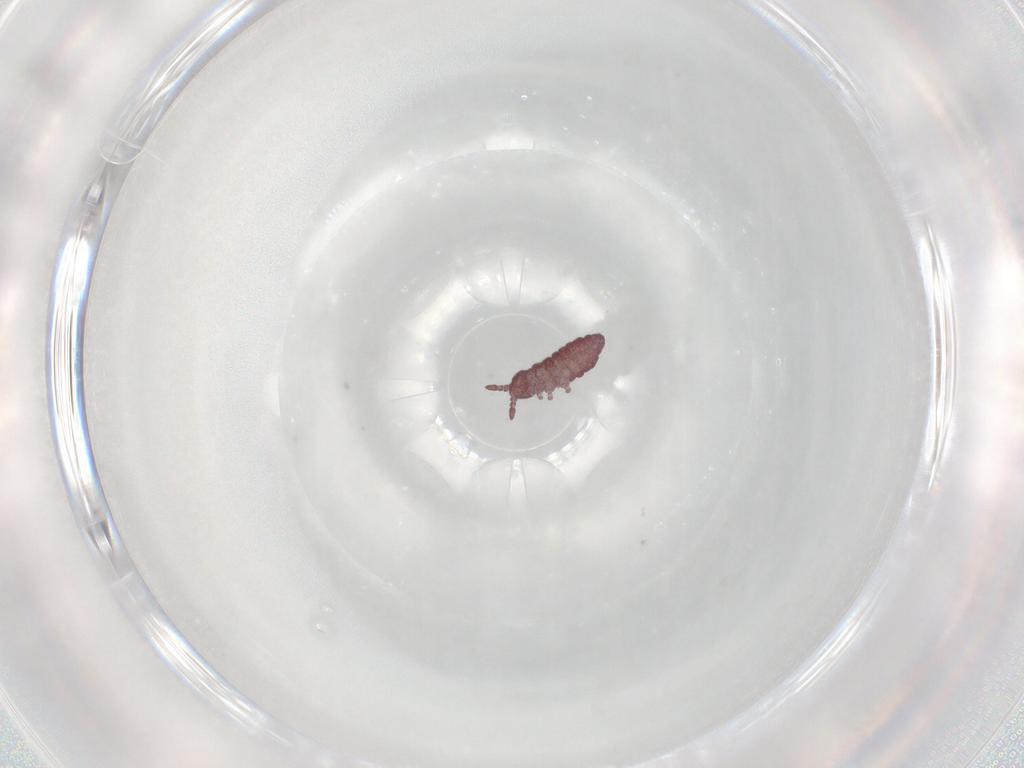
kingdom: Animalia
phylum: Arthropoda
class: Collembola
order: Poduromorpha
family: Hypogastruridae
